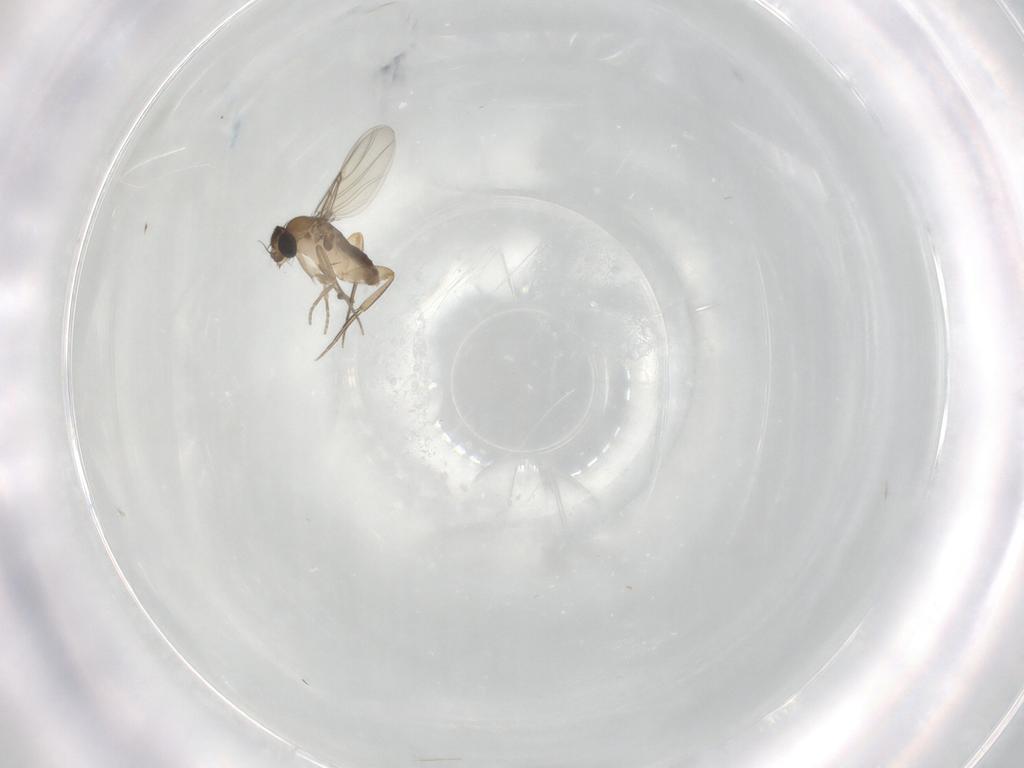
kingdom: Animalia
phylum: Arthropoda
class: Insecta
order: Diptera
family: Phoridae
